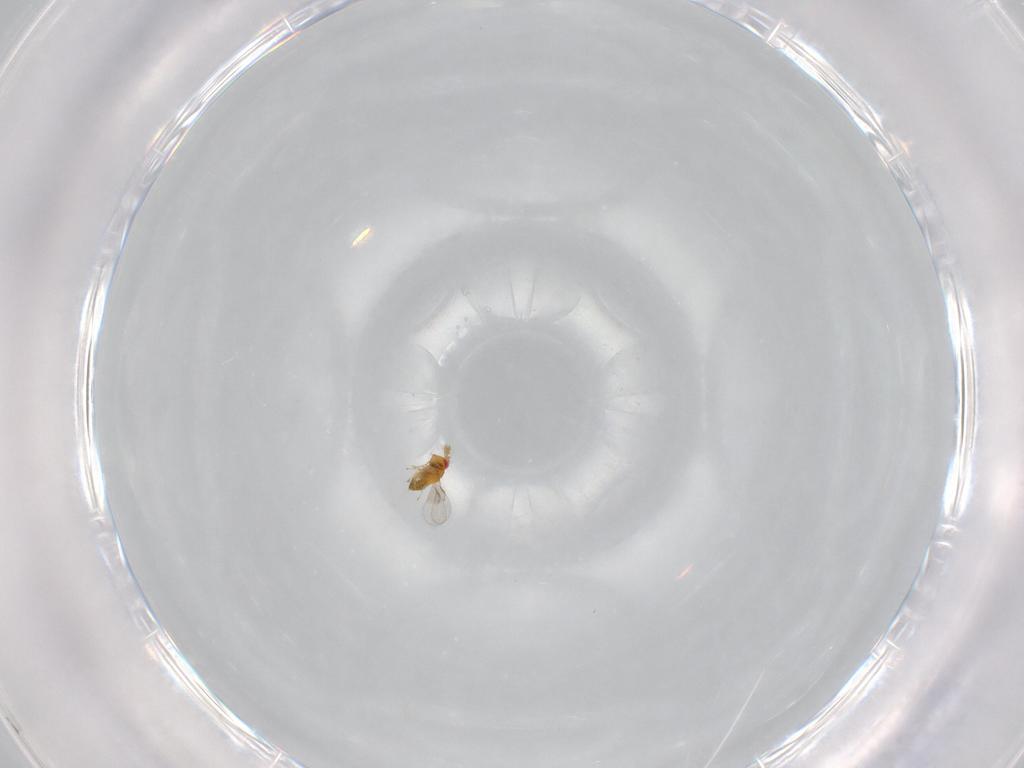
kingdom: Animalia
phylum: Arthropoda
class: Insecta
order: Hymenoptera
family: Trichogrammatidae
